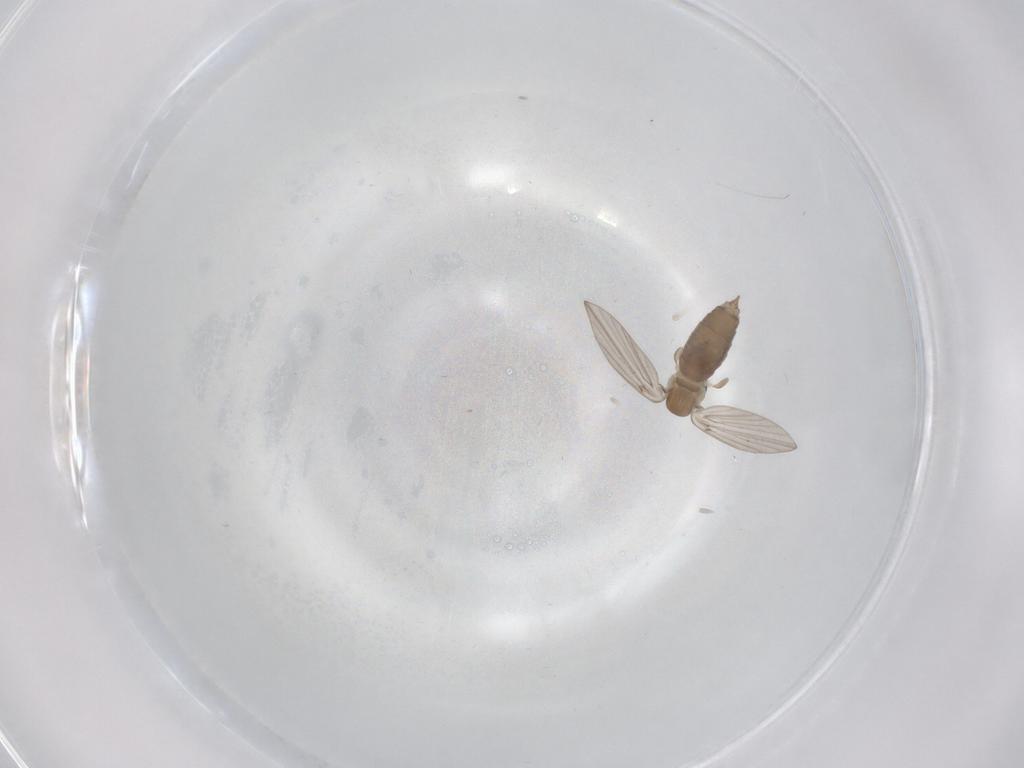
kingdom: Animalia
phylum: Arthropoda
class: Insecta
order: Diptera
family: Ceratopogonidae
